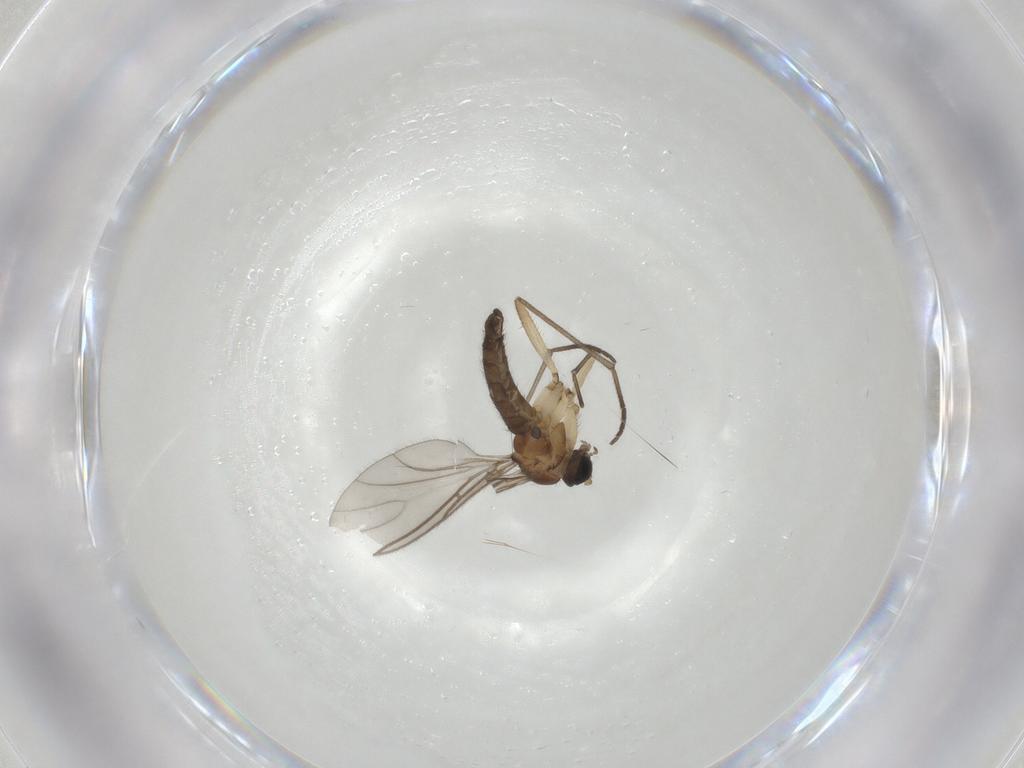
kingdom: Animalia
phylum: Arthropoda
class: Insecta
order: Diptera
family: Sciaridae
